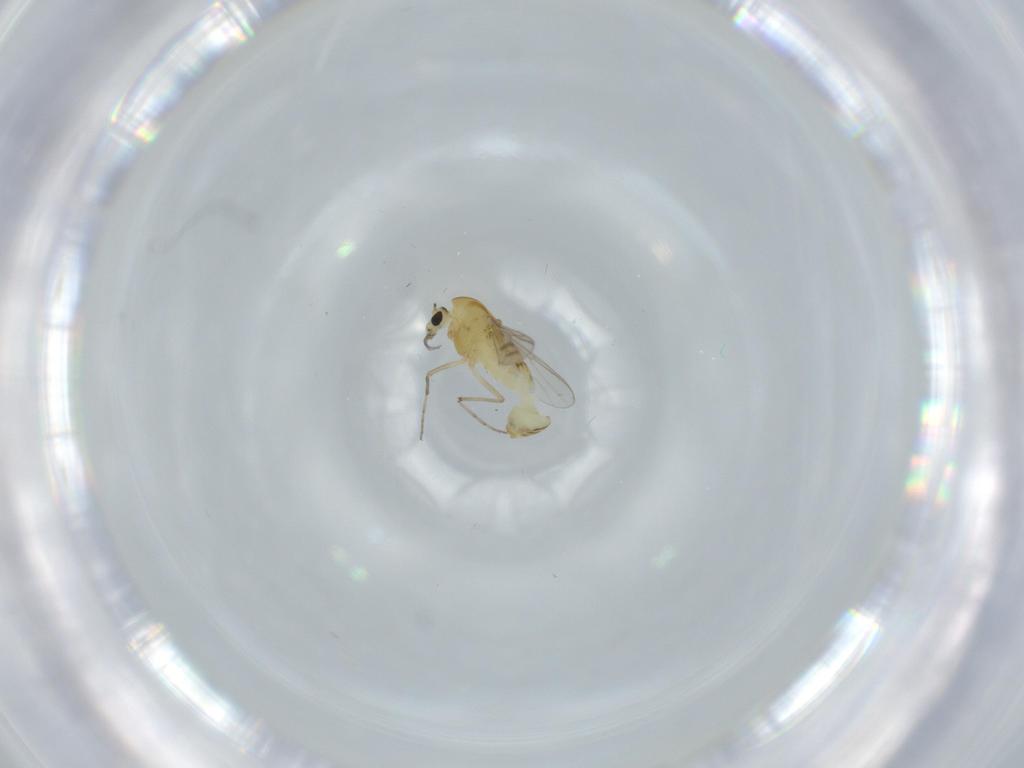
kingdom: Animalia
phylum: Arthropoda
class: Insecta
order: Diptera
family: Chironomidae
